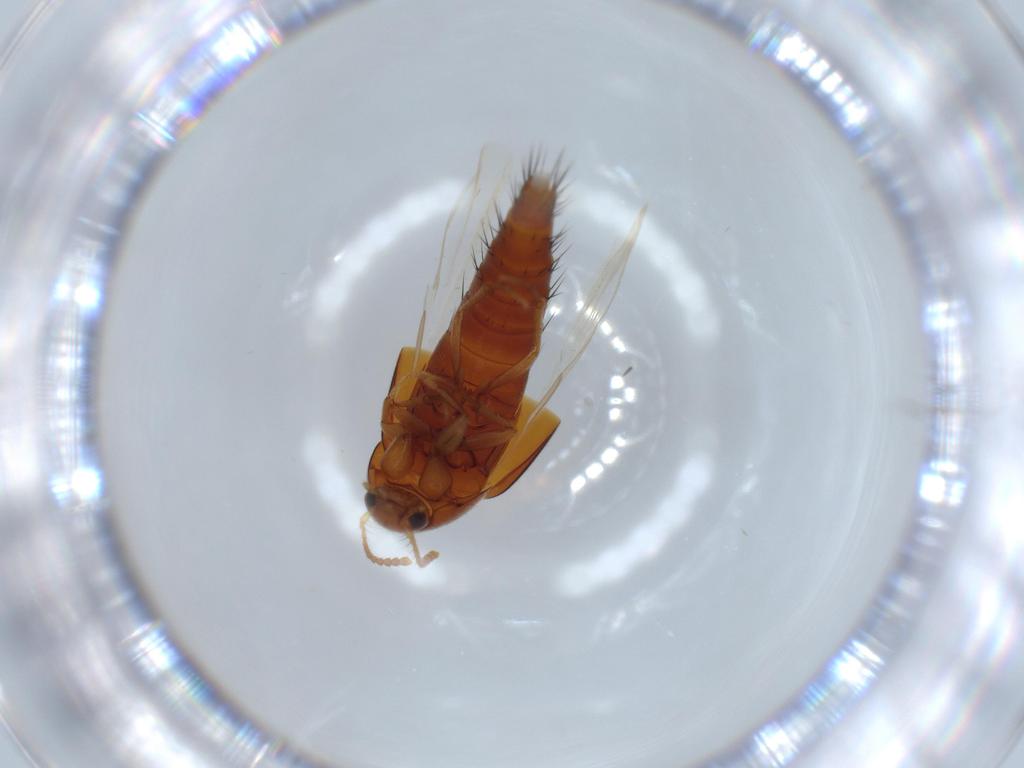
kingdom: Animalia
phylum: Arthropoda
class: Insecta
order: Coleoptera
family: Staphylinidae
